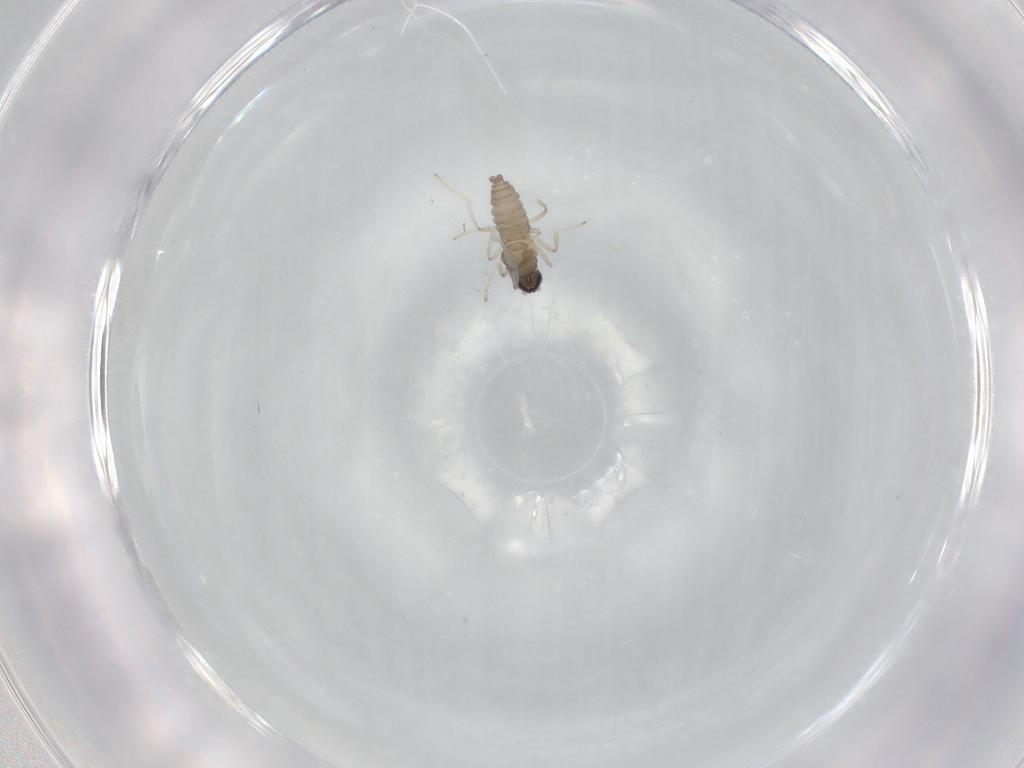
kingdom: Animalia
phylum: Arthropoda
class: Insecta
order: Diptera
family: Cecidomyiidae
